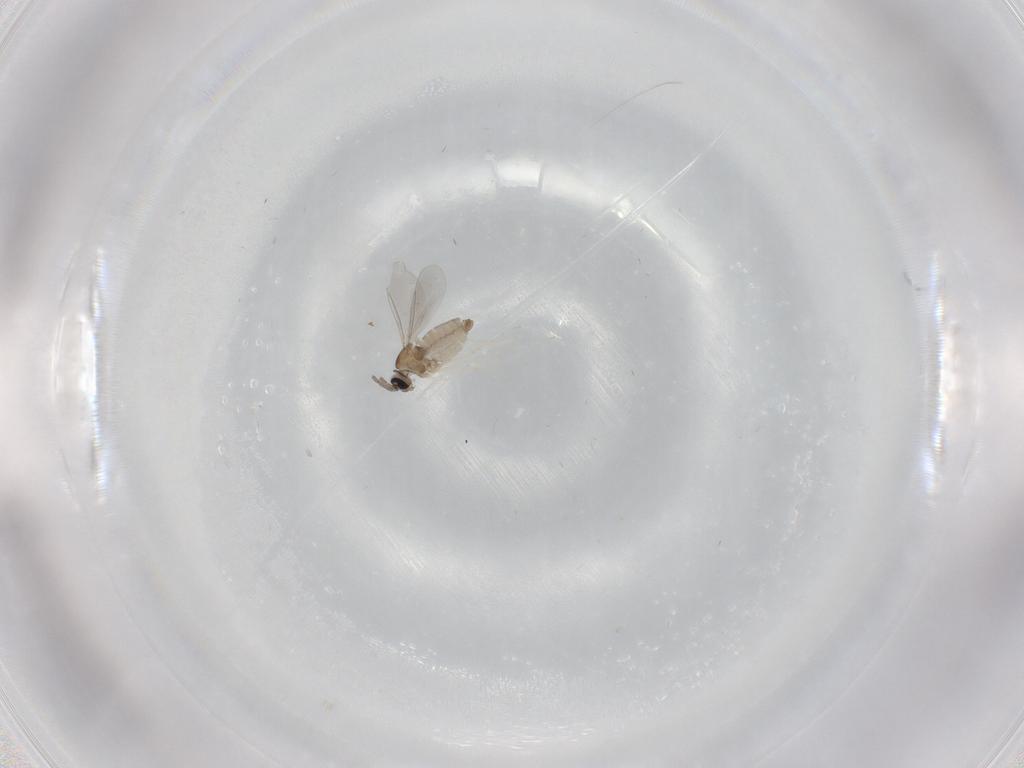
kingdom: Animalia
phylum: Arthropoda
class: Insecta
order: Diptera
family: Cecidomyiidae
